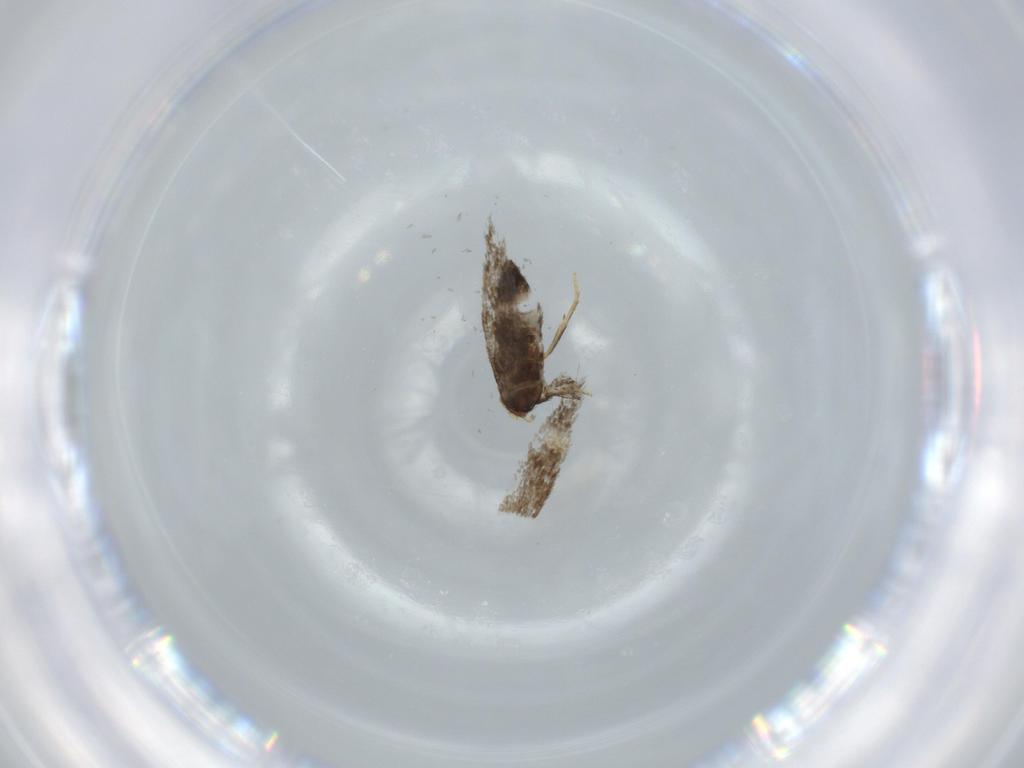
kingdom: Animalia
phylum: Arthropoda
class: Insecta
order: Lepidoptera
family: Nepticulidae
